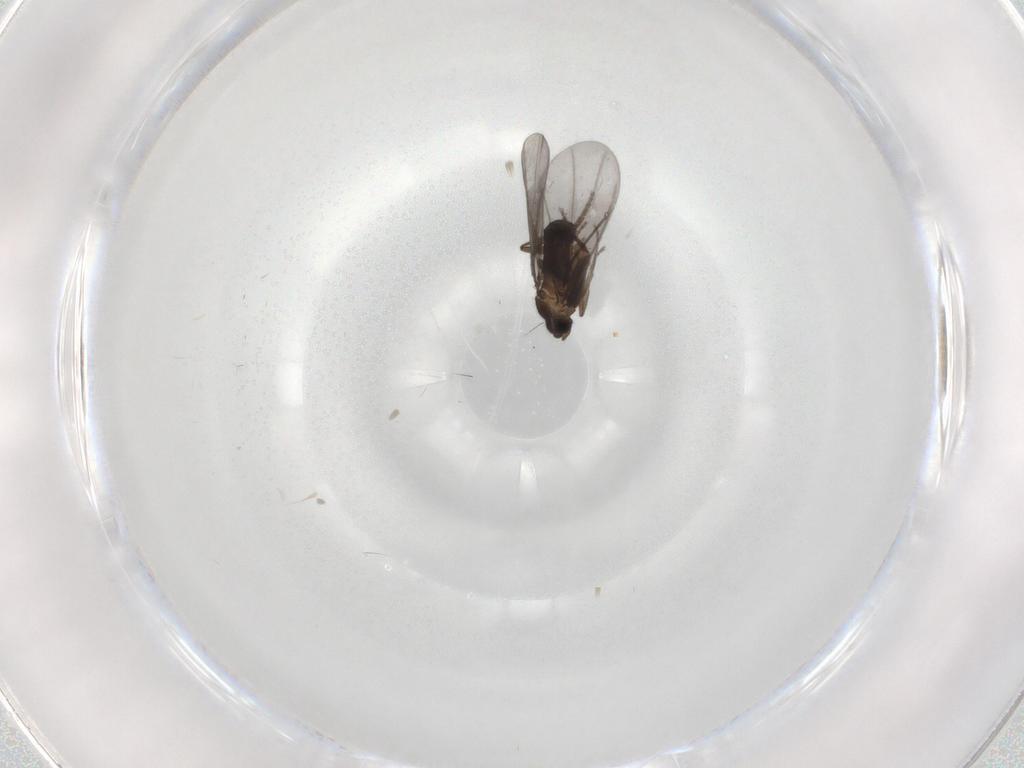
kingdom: Animalia
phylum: Arthropoda
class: Insecta
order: Diptera
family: Phoridae
